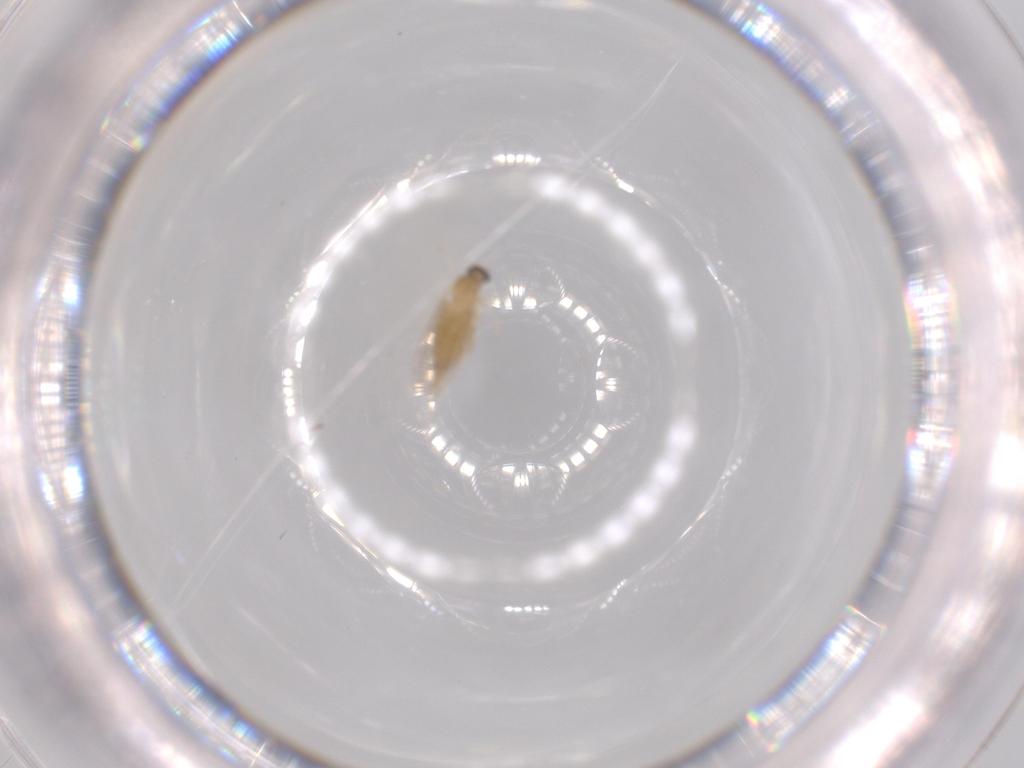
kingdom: Animalia
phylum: Arthropoda
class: Insecta
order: Diptera
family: Cecidomyiidae
